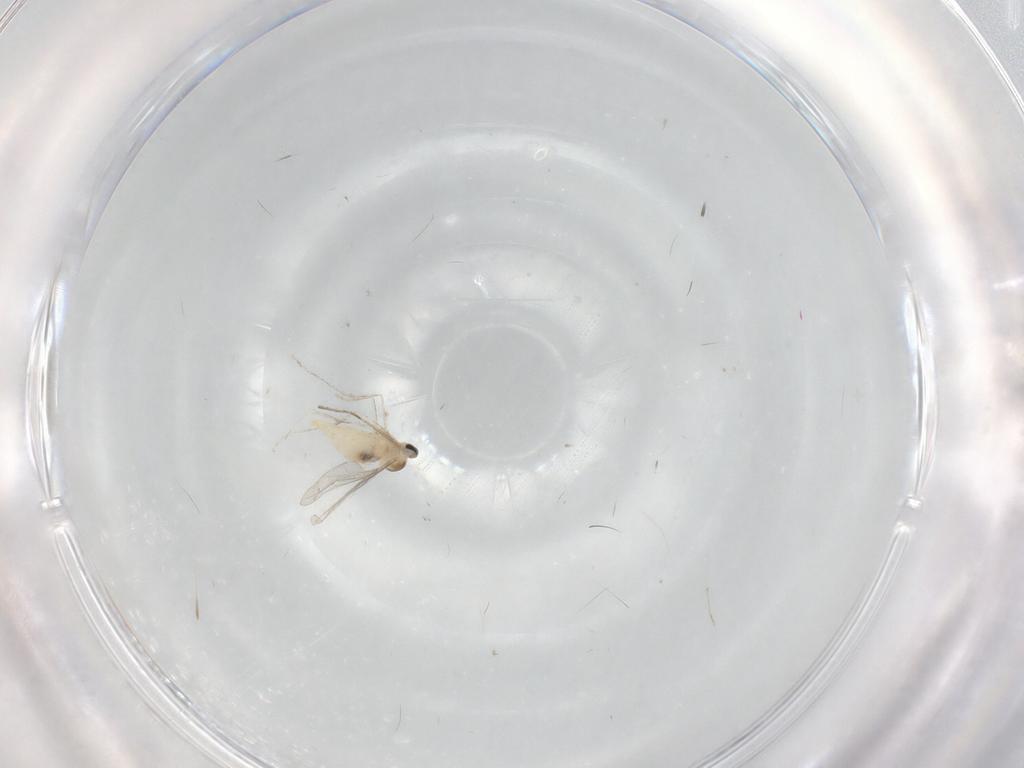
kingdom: Animalia
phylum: Arthropoda
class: Insecta
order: Diptera
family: Cecidomyiidae
